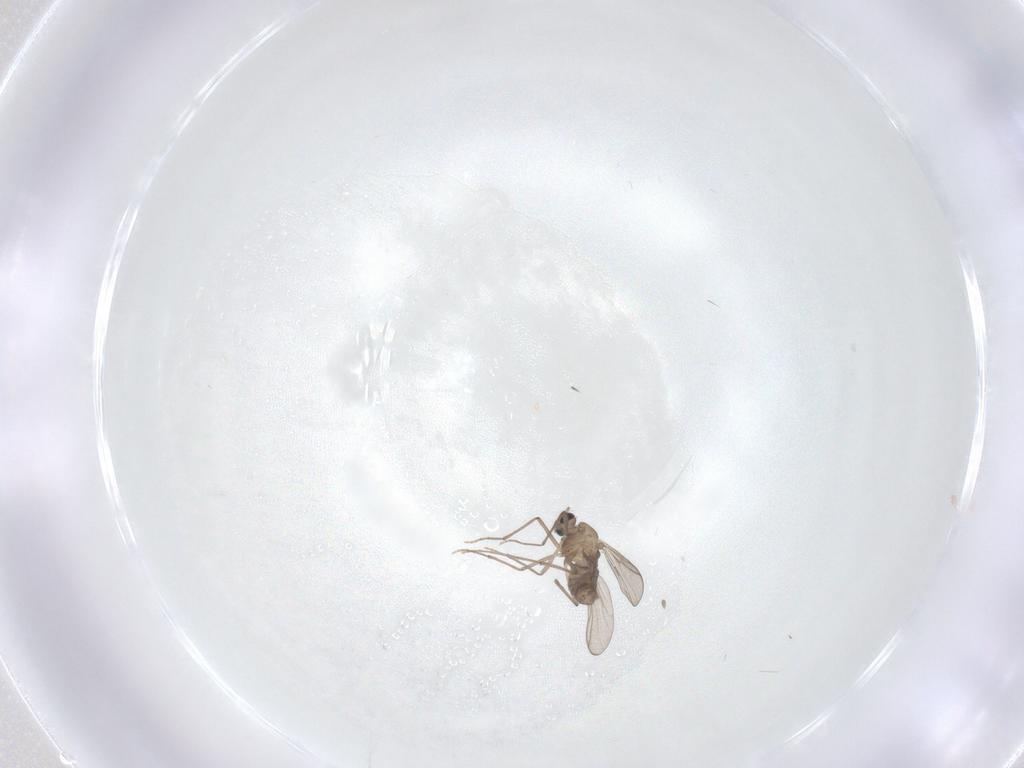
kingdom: Animalia
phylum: Arthropoda
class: Insecta
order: Diptera
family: Chironomidae
